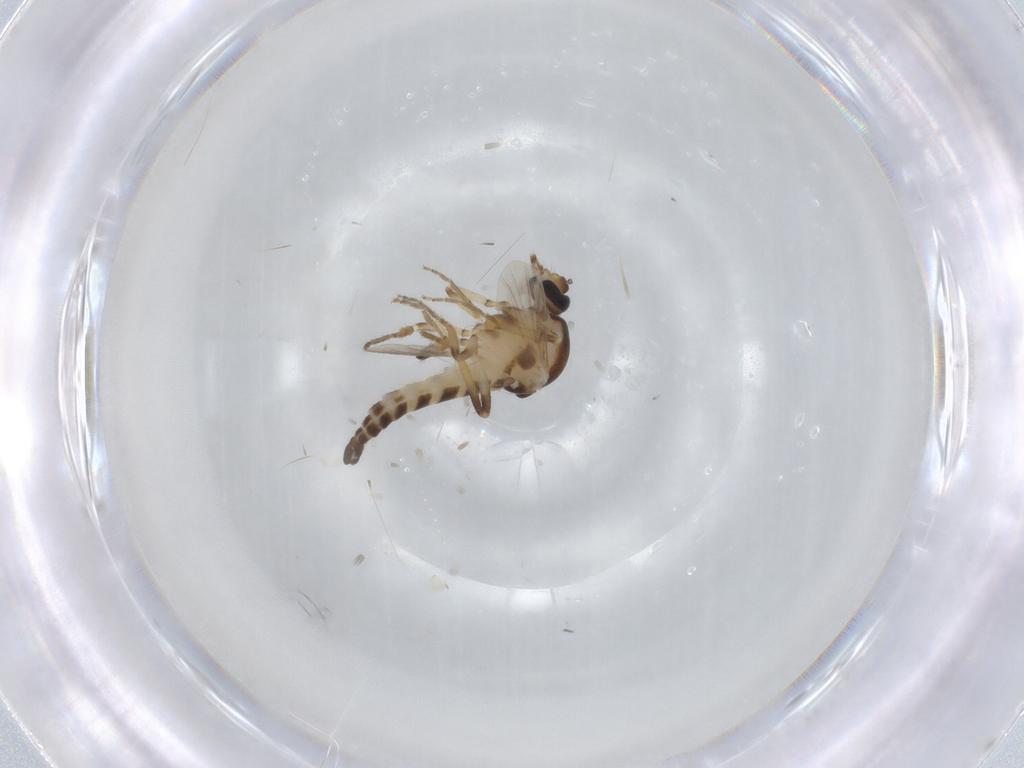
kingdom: Animalia
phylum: Arthropoda
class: Insecta
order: Diptera
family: Ceratopogonidae
